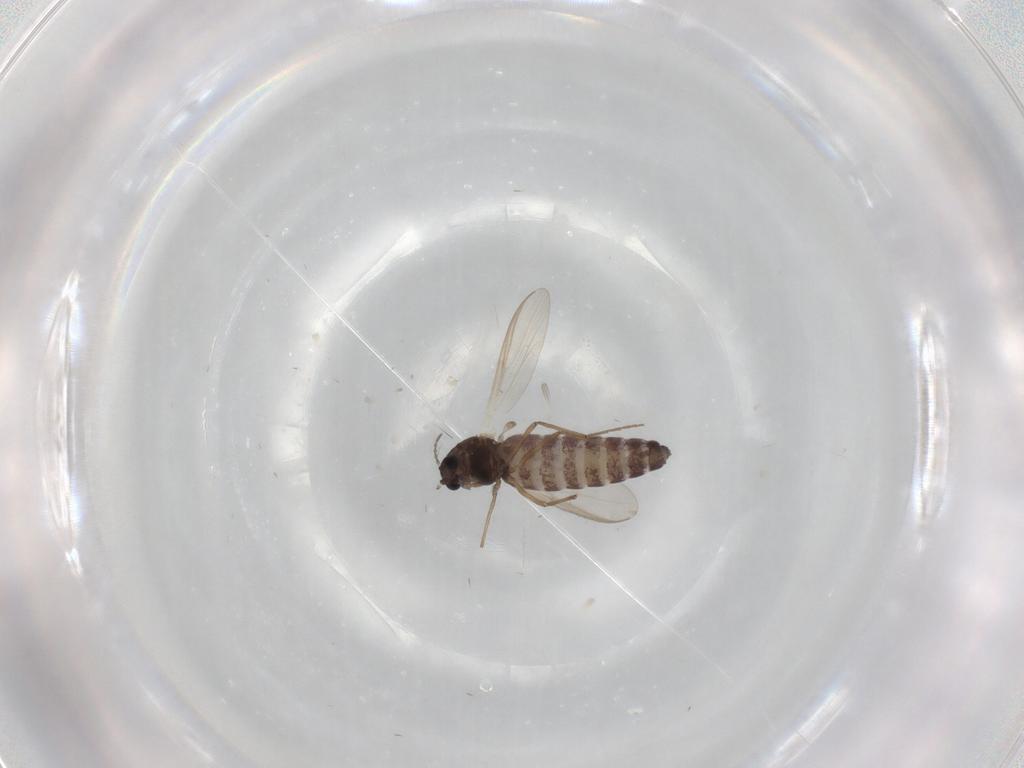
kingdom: Animalia
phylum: Arthropoda
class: Insecta
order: Diptera
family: Chironomidae
